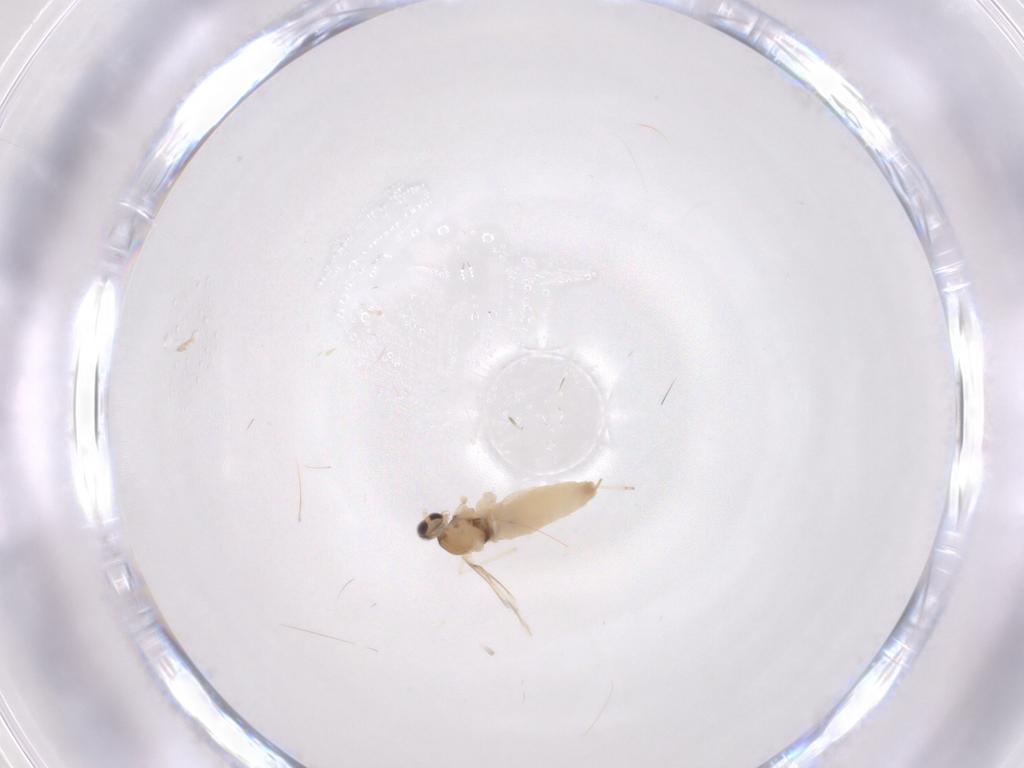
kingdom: Animalia
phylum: Arthropoda
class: Insecta
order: Diptera
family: Cecidomyiidae
